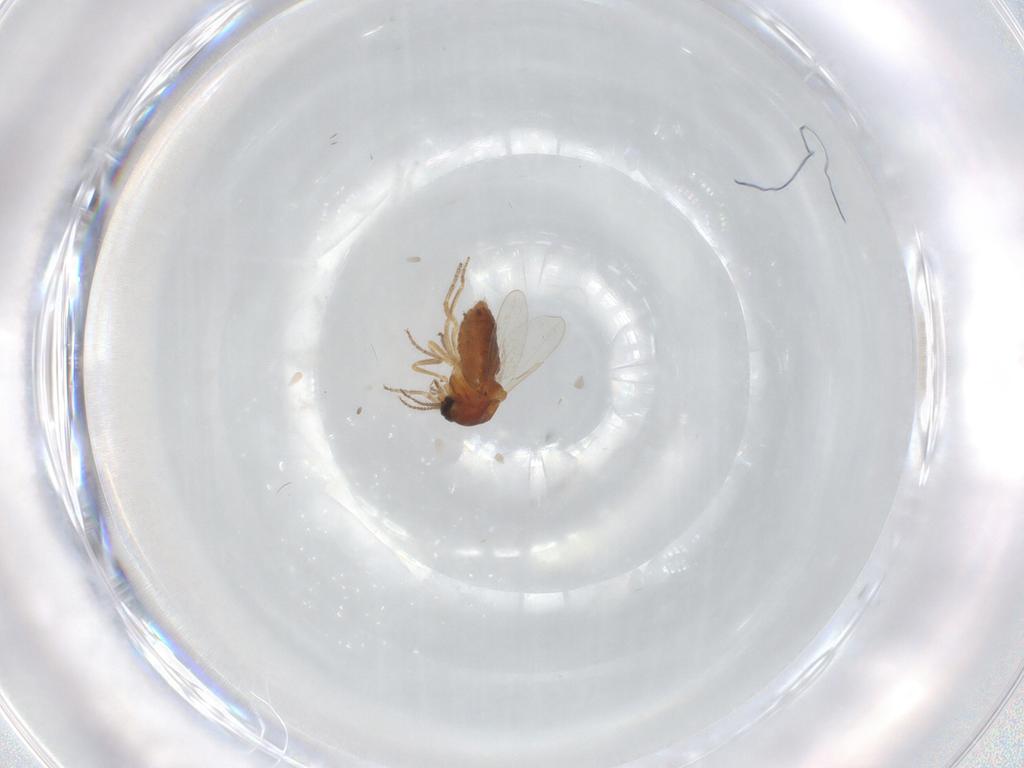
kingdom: Animalia
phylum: Arthropoda
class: Insecta
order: Diptera
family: Ceratopogonidae
